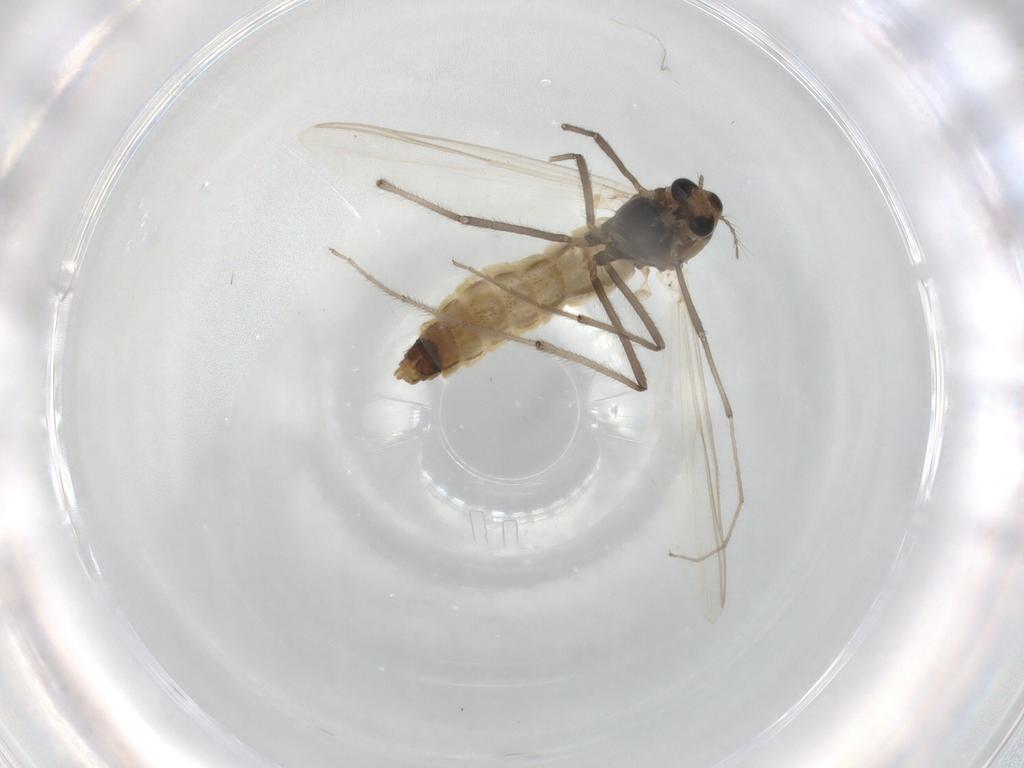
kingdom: Animalia
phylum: Arthropoda
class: Insecta
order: Diptera
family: Chironomidae
